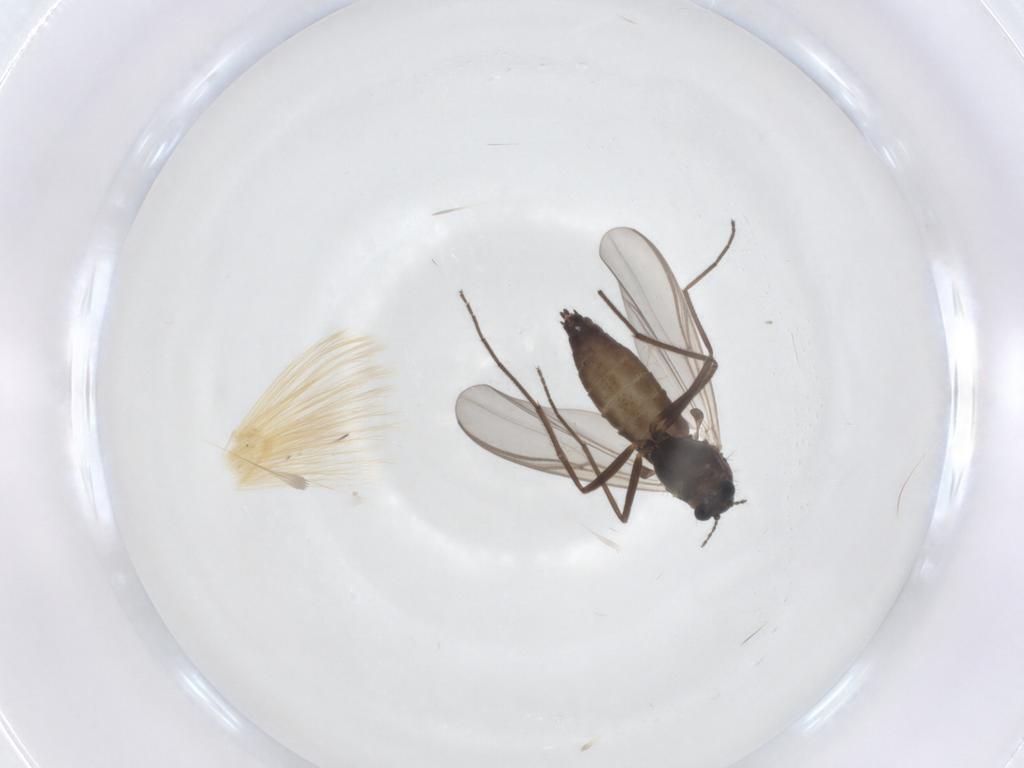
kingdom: Animalia
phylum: Arthropoda
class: Insecta
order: Diptera
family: Chironomidae
